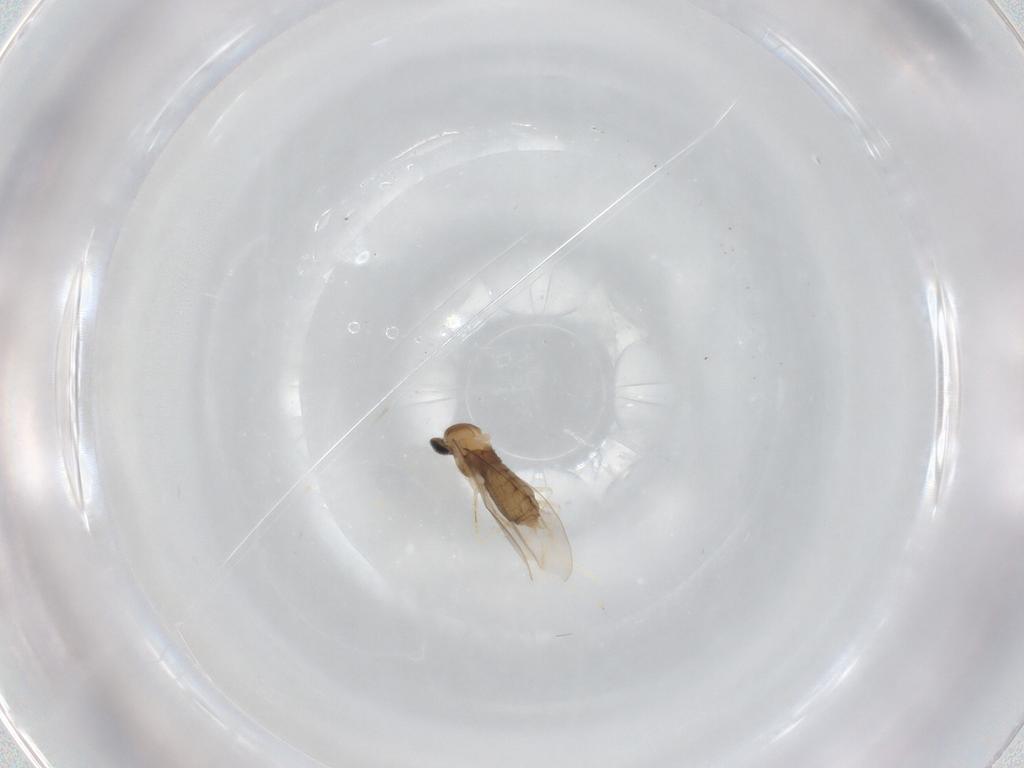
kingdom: Animalia
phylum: Arthropoda
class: Insecta
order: Diptera
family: Cecidomyiidae
